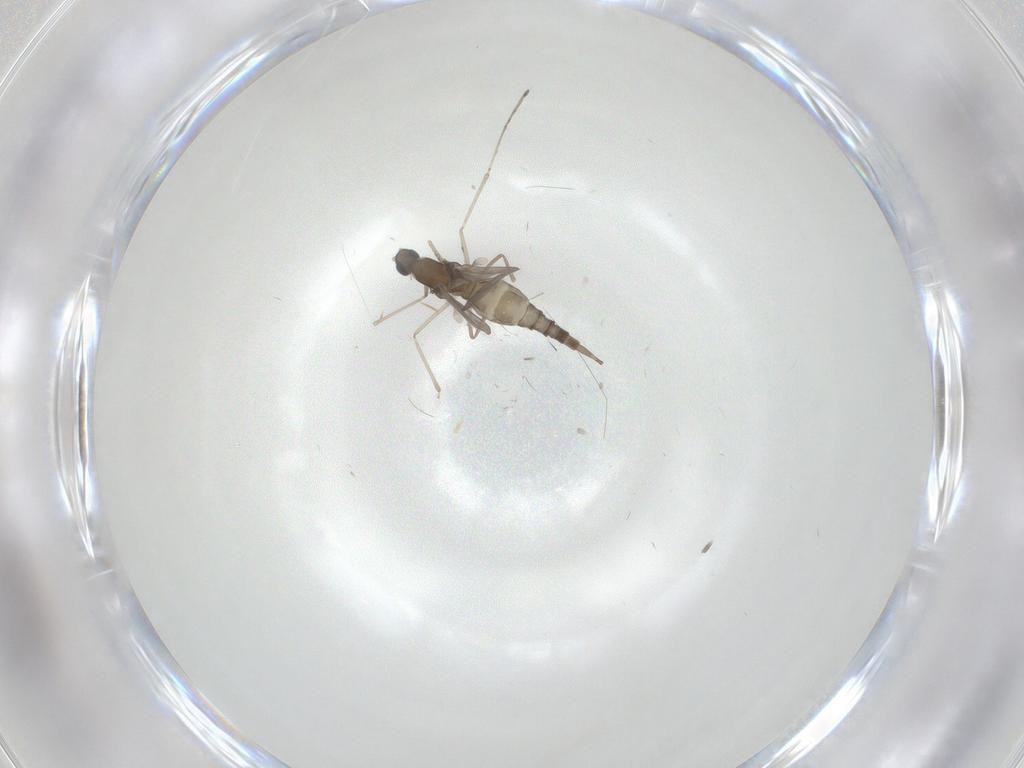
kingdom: Animalia
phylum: Arthropoda
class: Insecta
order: Diptera
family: Cecidomyiidae
